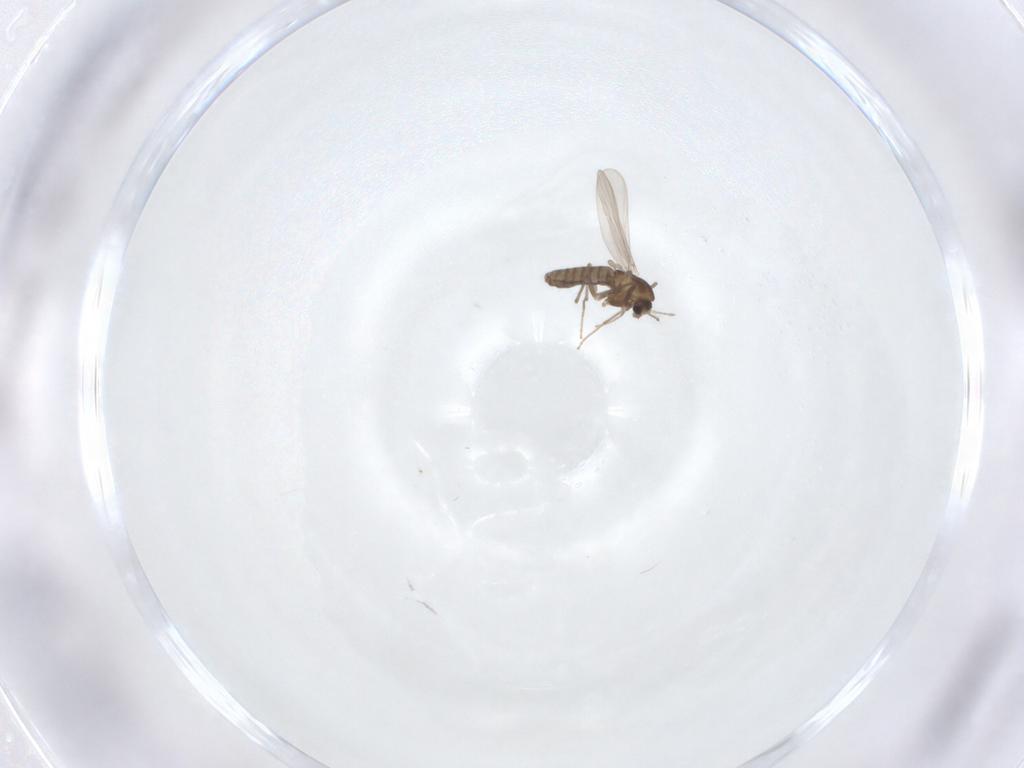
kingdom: Animalia
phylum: Arthropoda
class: Insecta
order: Diptera
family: Chironomidae
